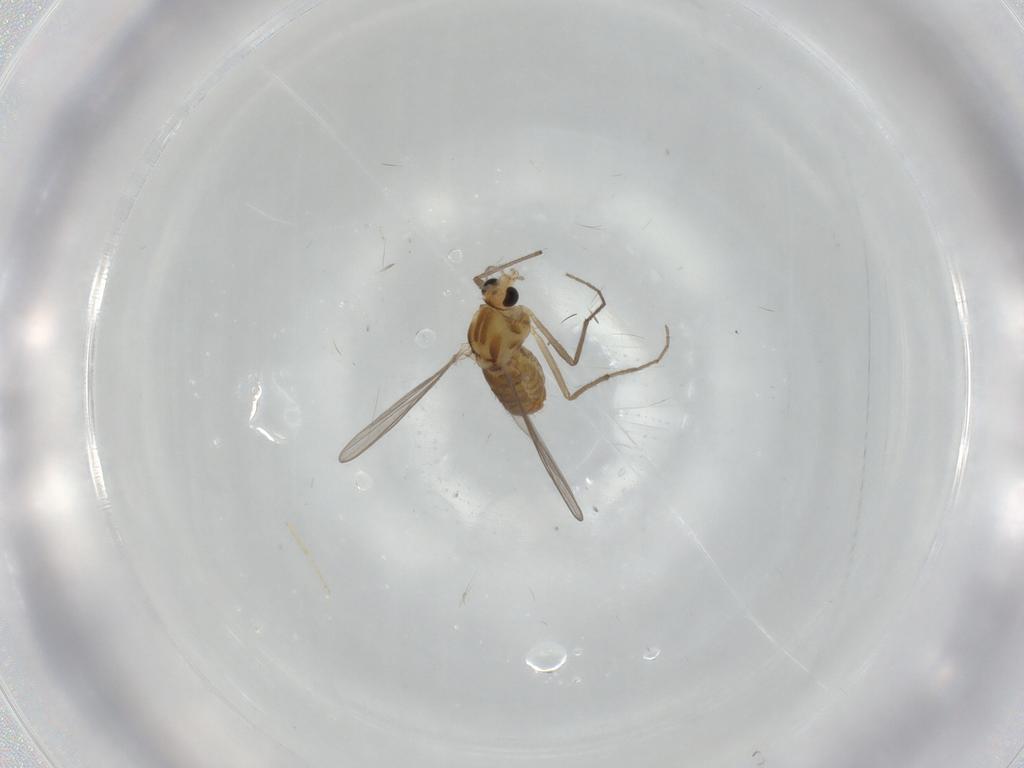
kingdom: Animalia
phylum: Arthropoda
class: Insecta
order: Diptera
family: Chironomidae
